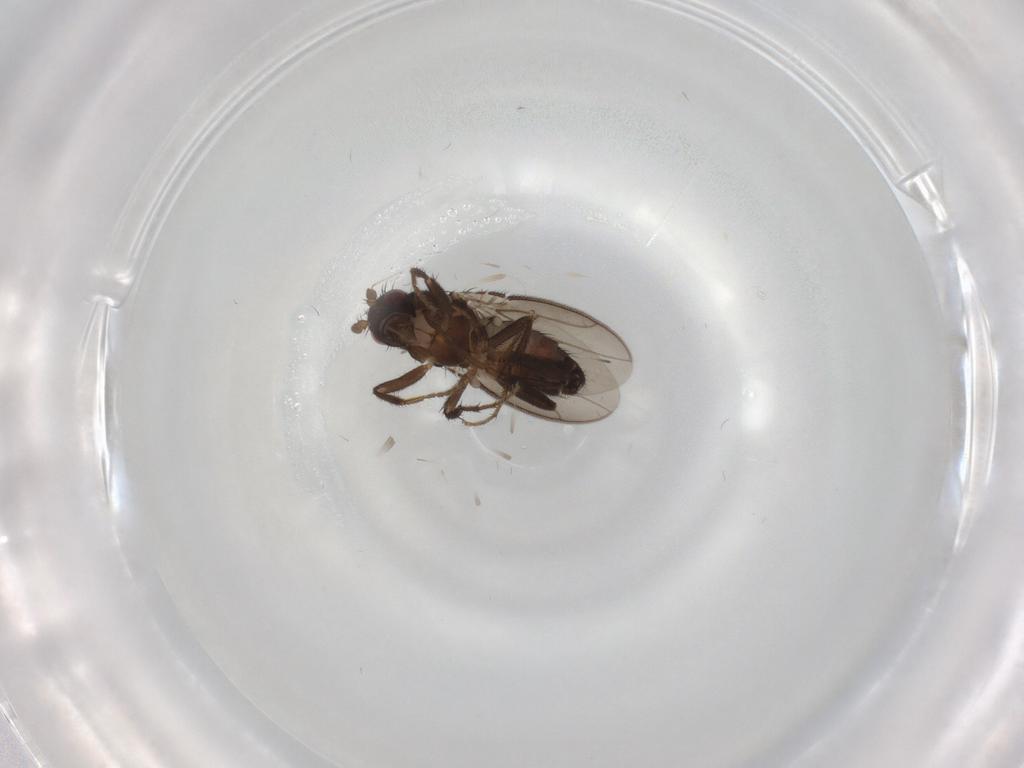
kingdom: Animalia
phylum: Arthropoda
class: Insecta
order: Diptera
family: Sphaeroceridae
